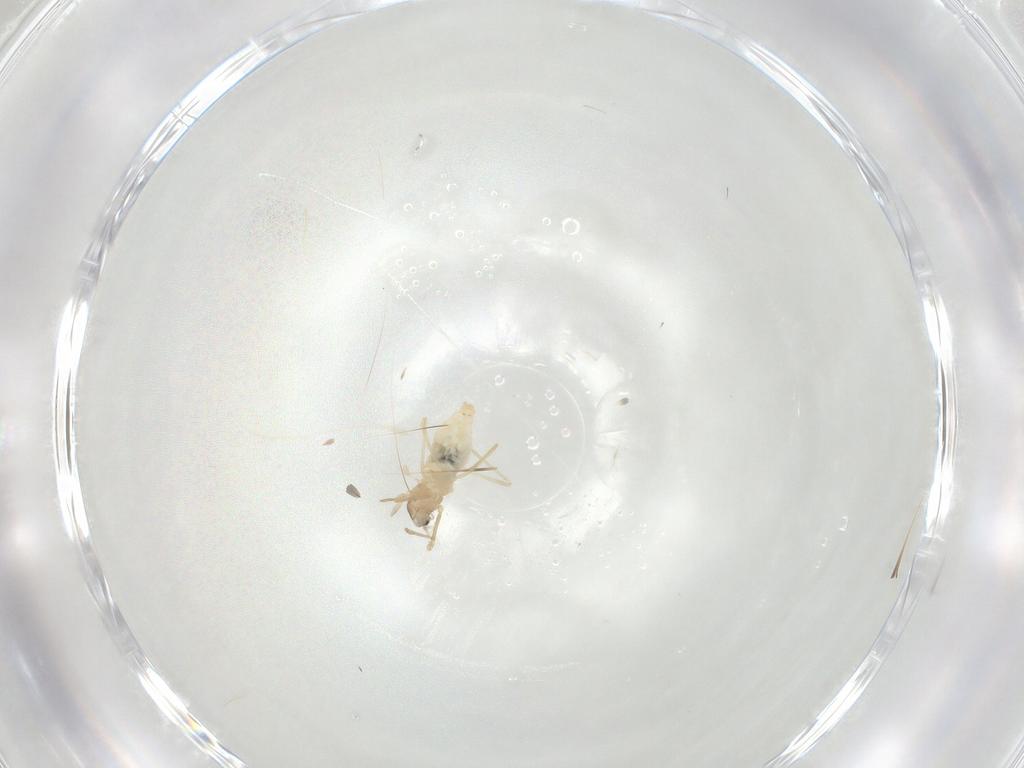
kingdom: Animalia
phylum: Arthropoda
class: Insecta
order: Diptera
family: Cecidomyiidae
